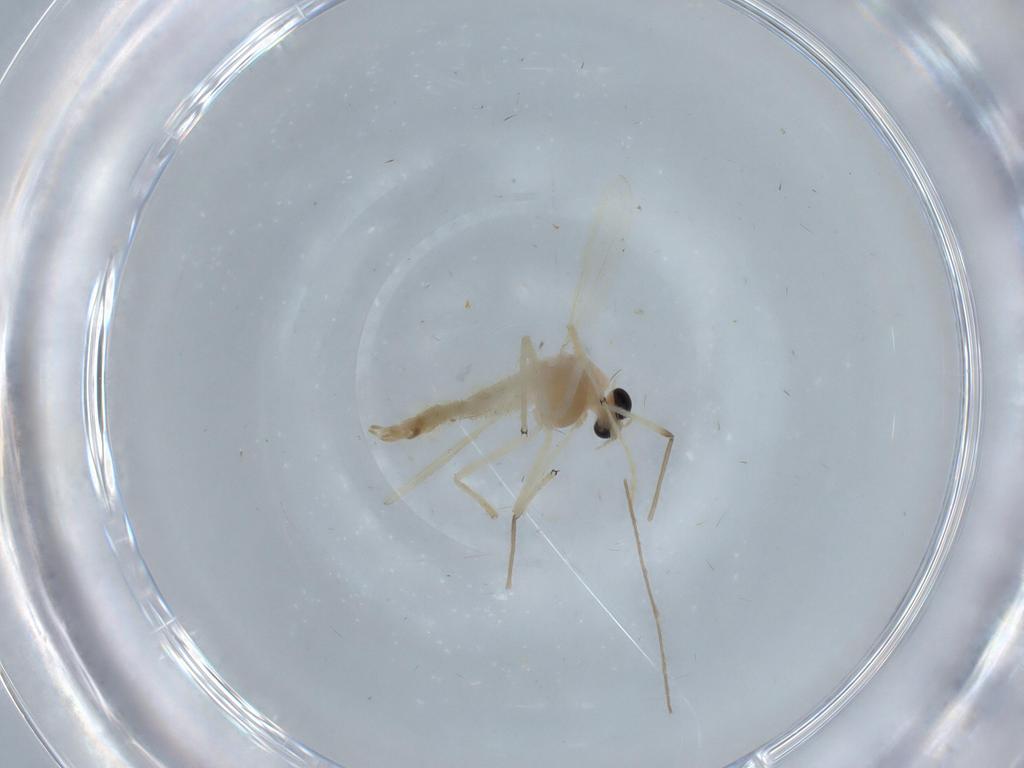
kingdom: Animalia
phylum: Arthropoda
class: Insecta
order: Diptera
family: Chironomidae
